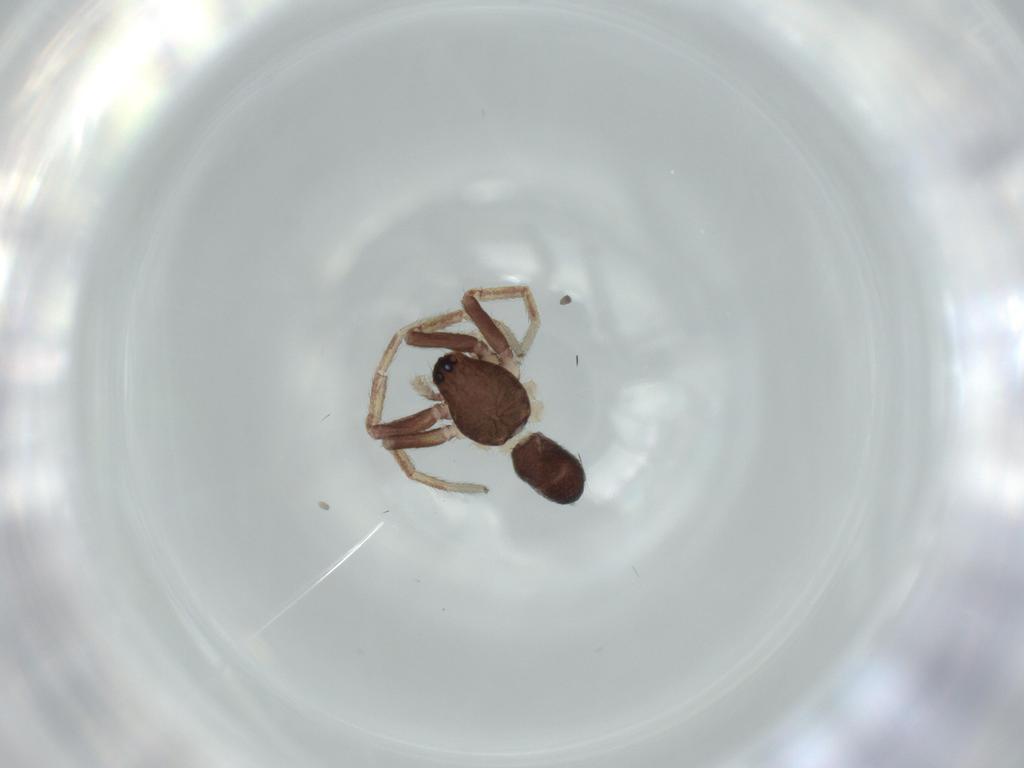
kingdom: Animalia
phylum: Arthropoda
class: Arachnida
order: Araneae
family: Corinnidae
